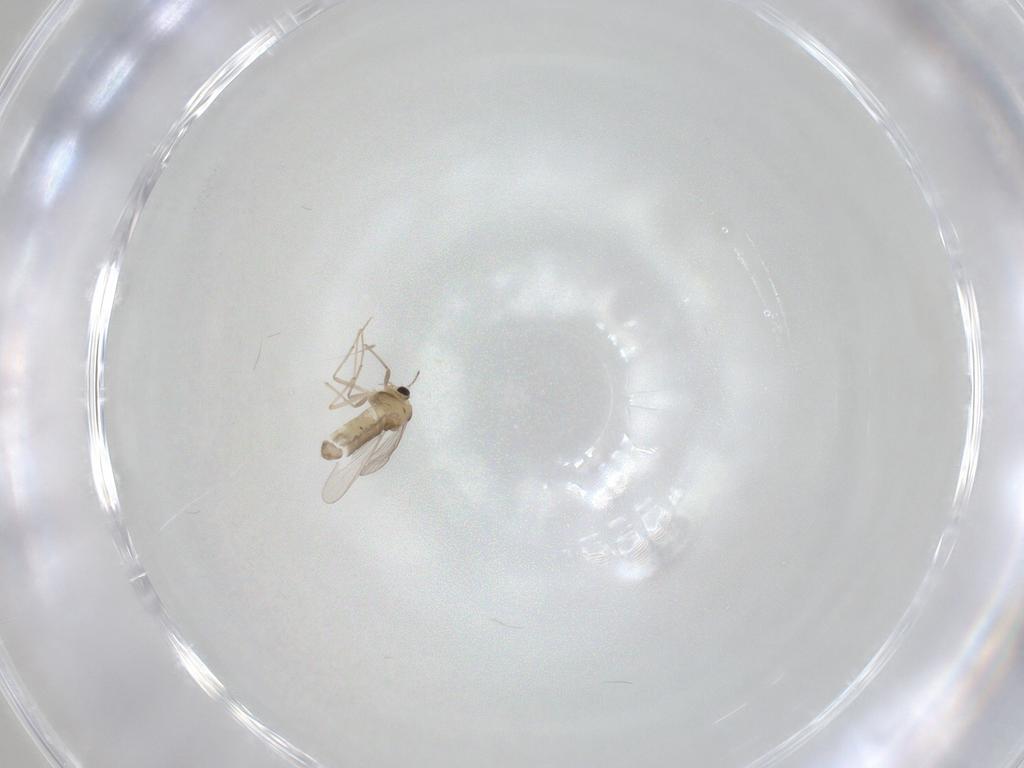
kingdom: Animalia
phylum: Arthropoda
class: Insecta
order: Diptera
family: Chironomidae
